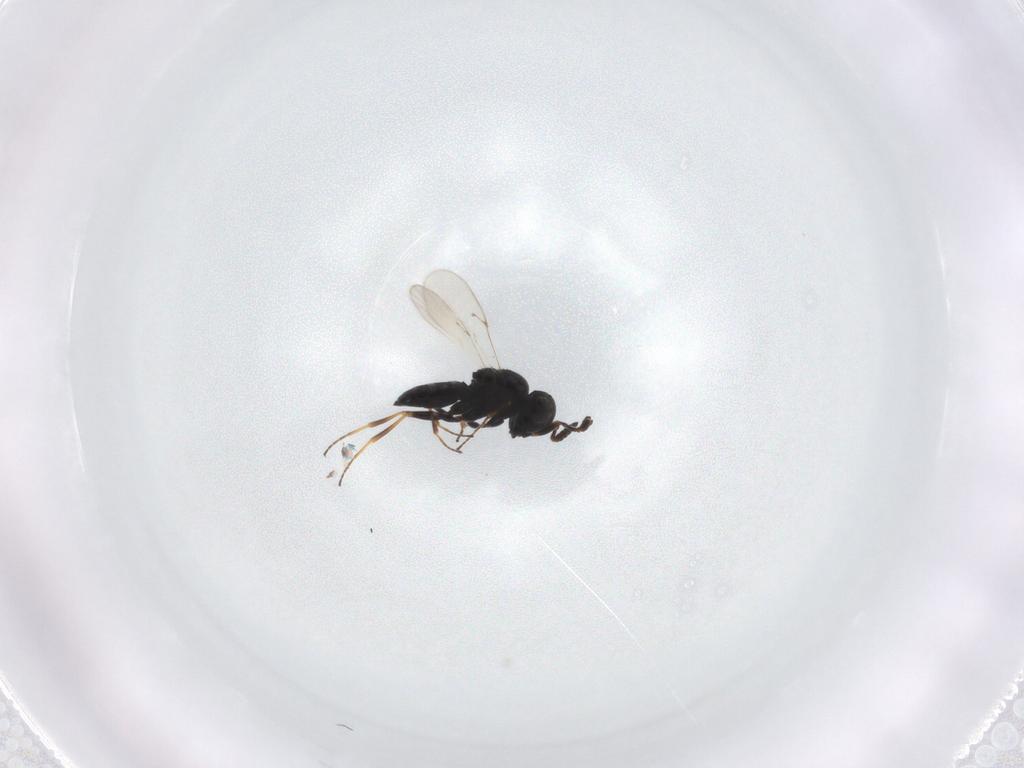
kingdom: Animalia
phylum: Arthropoda
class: Insecta
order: Hymenoptera
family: Scelionidae
